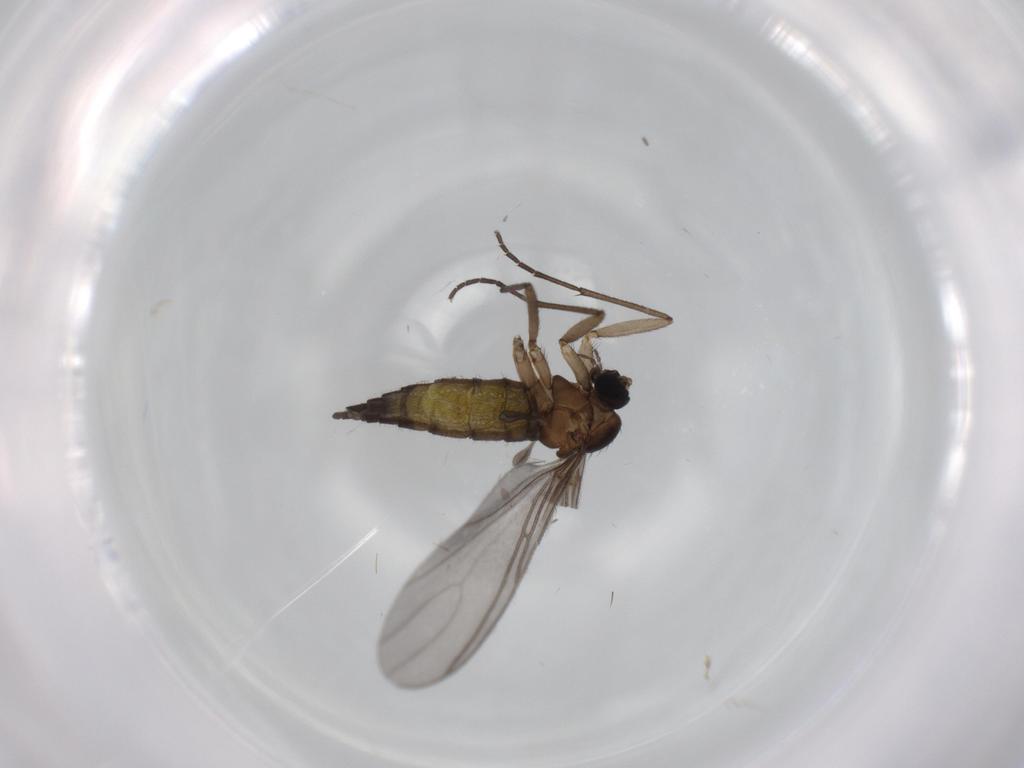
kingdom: Animalia
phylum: Arthropoda
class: Insecta
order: Diptera
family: Sciaridae
